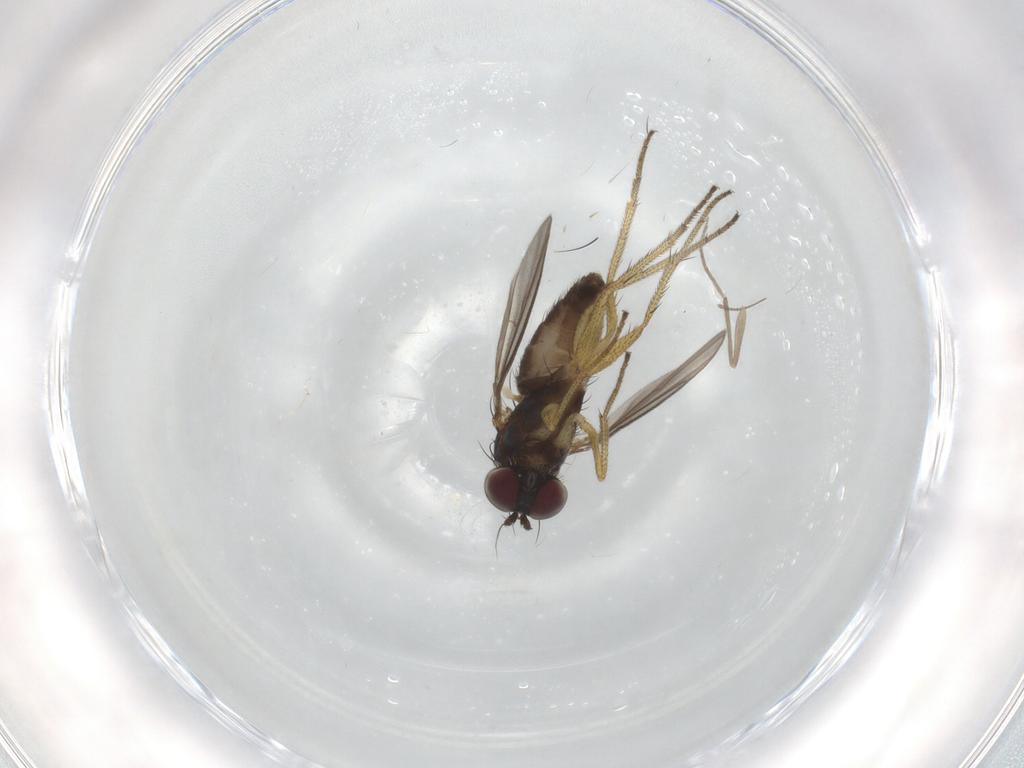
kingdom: Animalia
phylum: Arthropoda
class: Insecta
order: Diptera
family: Dolichopodidae
